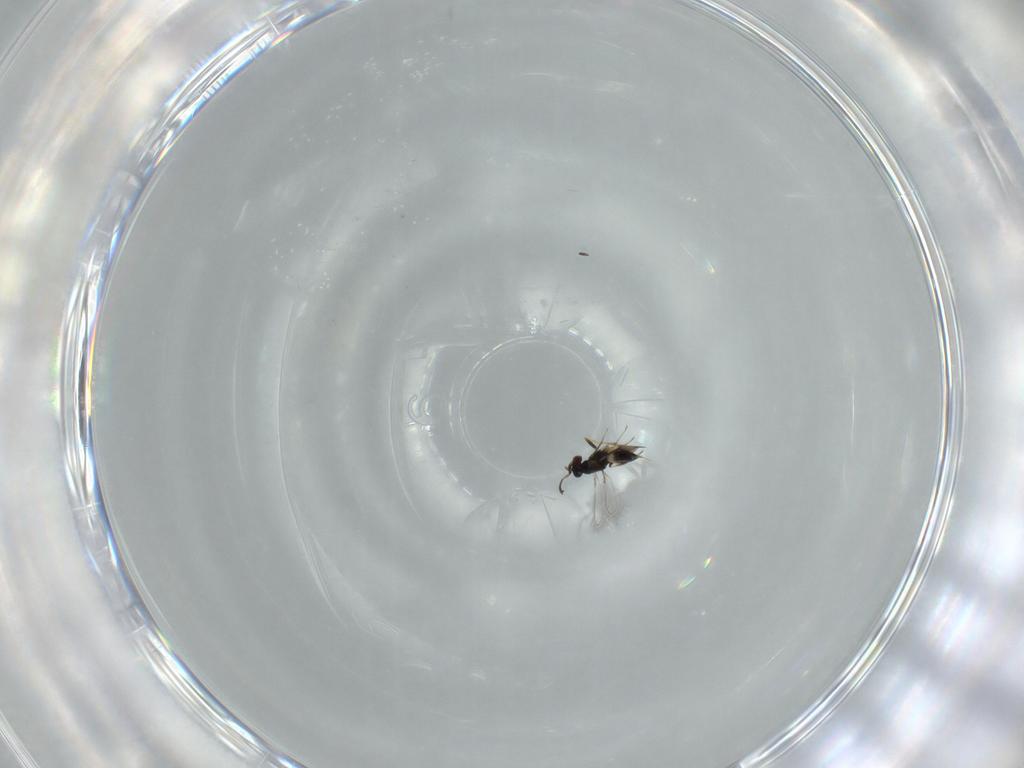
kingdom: Animalia
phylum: Arthropoda
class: Insecta
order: Hymenoptera
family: Mymaridae
